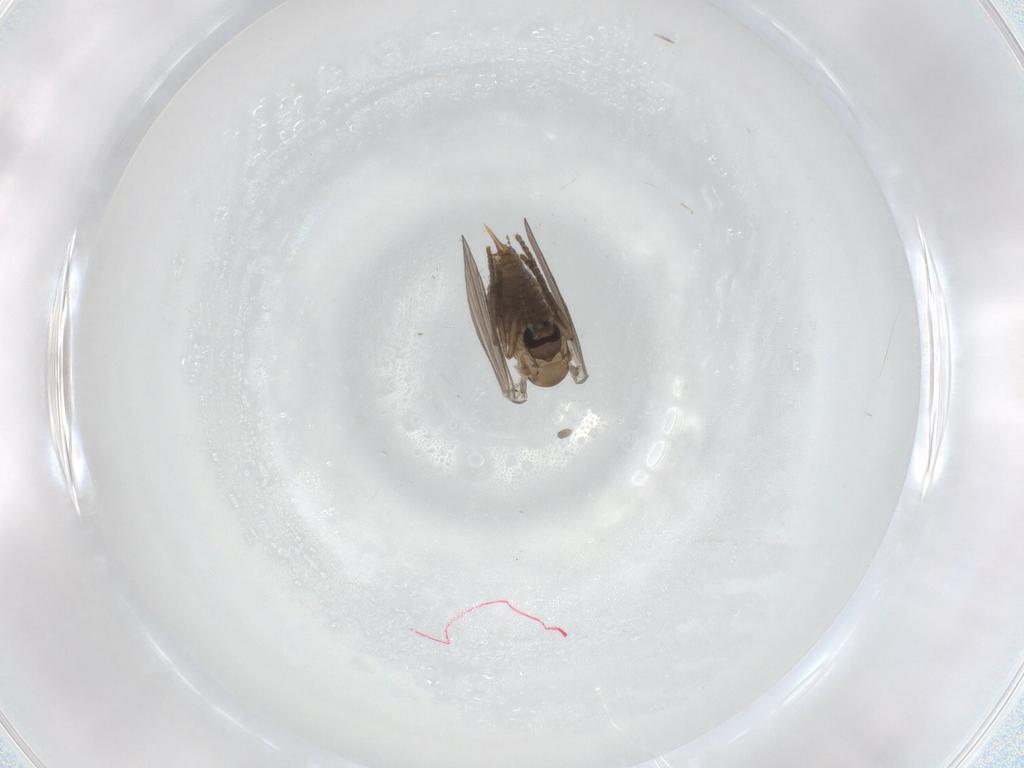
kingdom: Animalia
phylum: Arthropoda
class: Insecta
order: Diptera
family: Psychodidae
